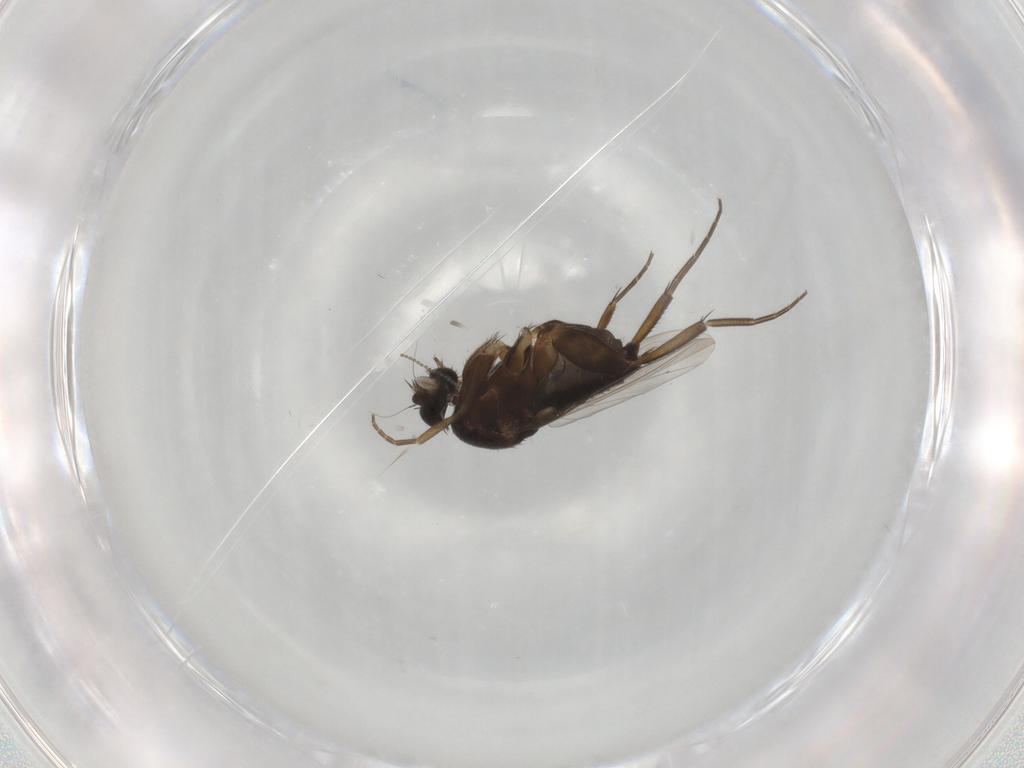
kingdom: Animalia
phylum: Arthropoda
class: Insecta
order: Diptera
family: Phoridae
